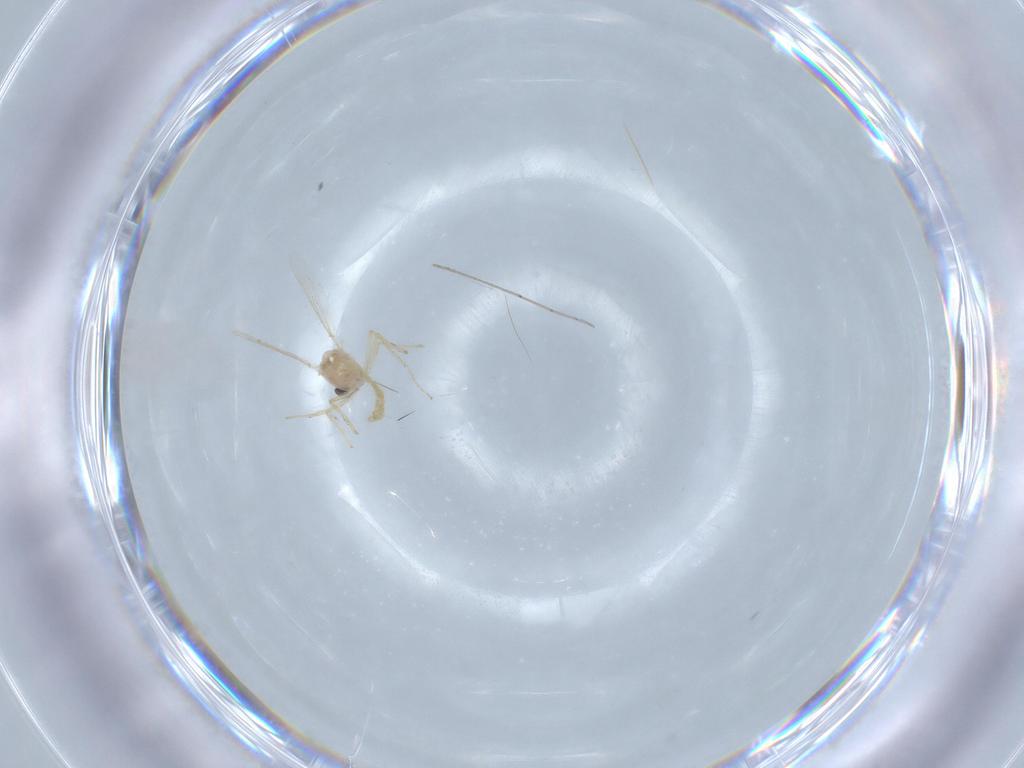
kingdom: Animalia
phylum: Arthropoda
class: Insecta
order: Diptera
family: Chironomidae
